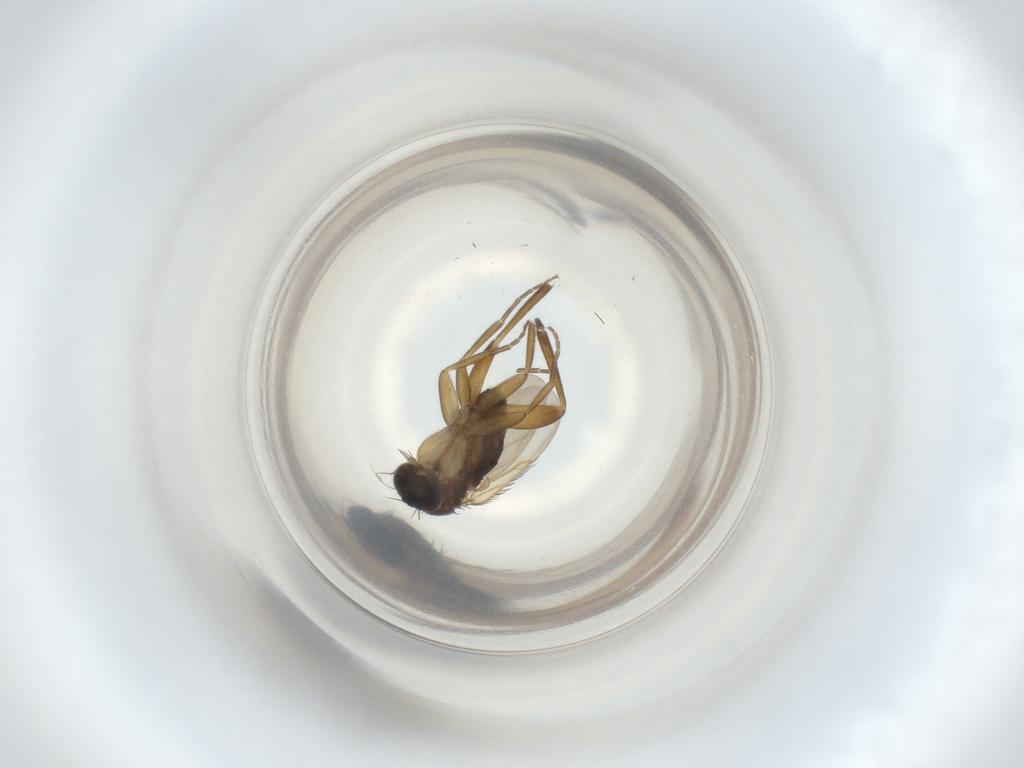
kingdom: Animalia
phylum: Arthropoda
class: Insecta
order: Diptera
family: Phoridae
